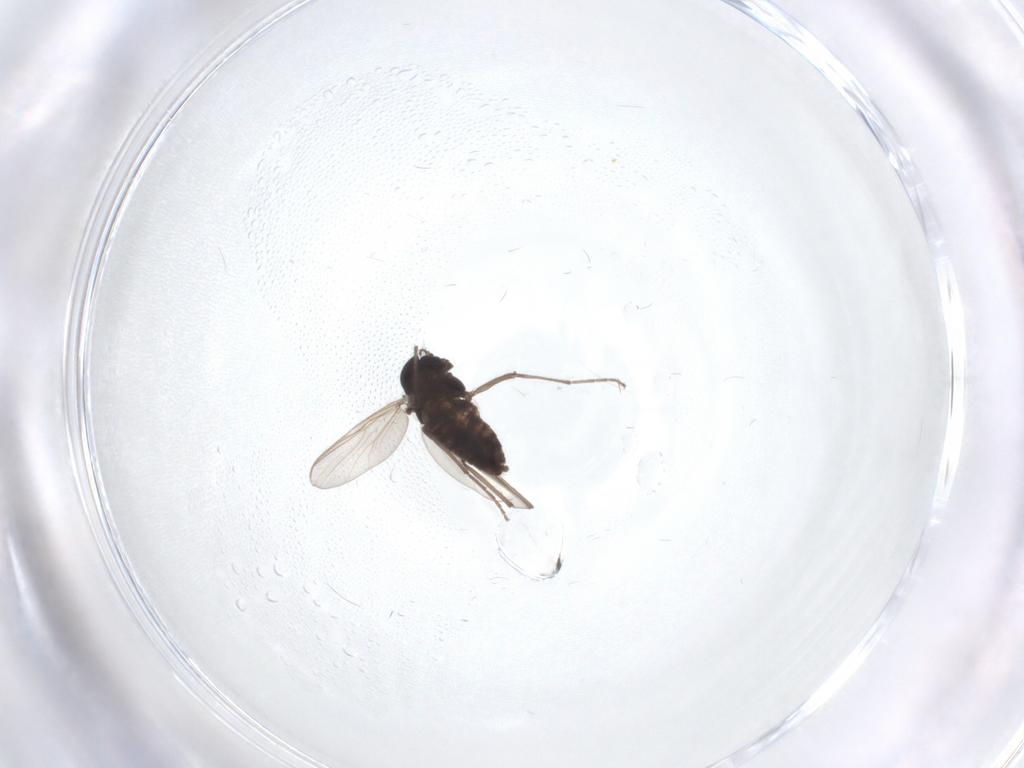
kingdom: Animalia
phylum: Arthropoda
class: Insecta
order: Diptera
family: Chironomidae
